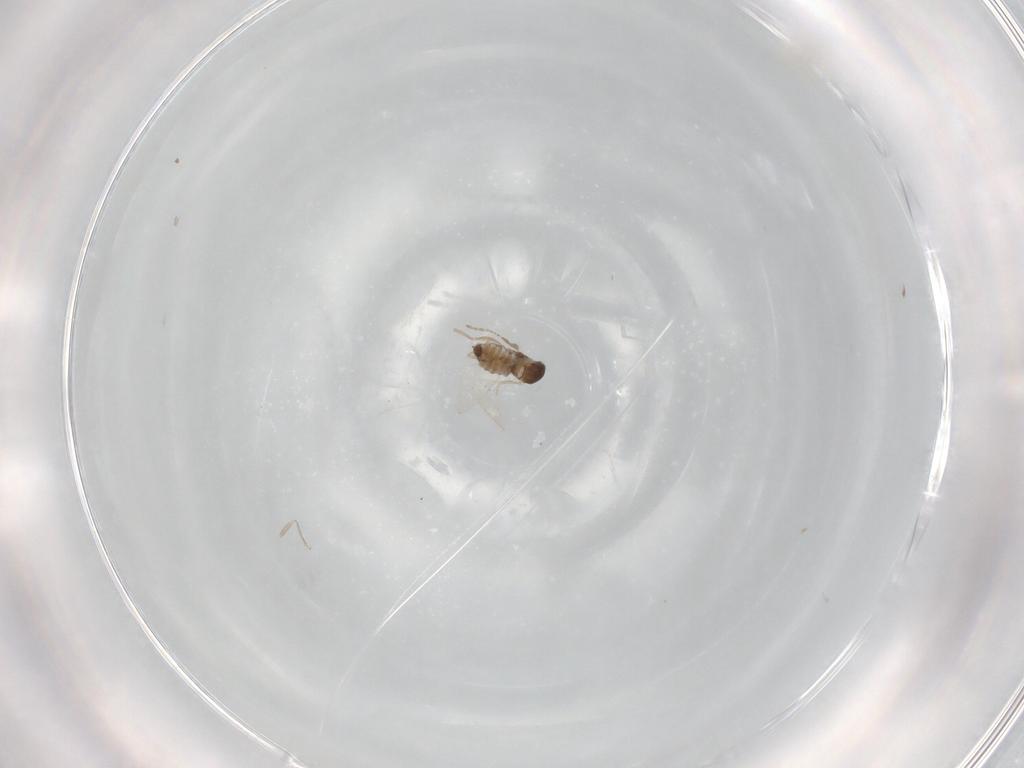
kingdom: Animalia
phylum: Arthropoda
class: Insecta
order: Diptera
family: Cecidomyiidae
